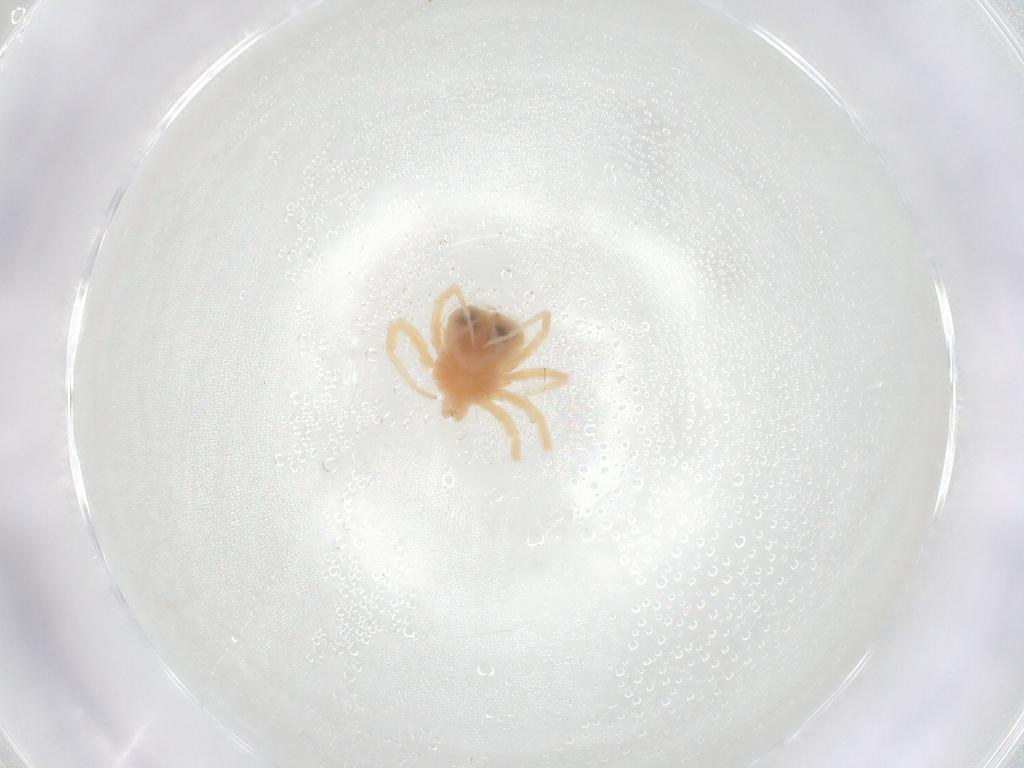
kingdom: Animalia
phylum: Arthropoda
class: Arachnida
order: Trombidiformes
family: Anystidae
